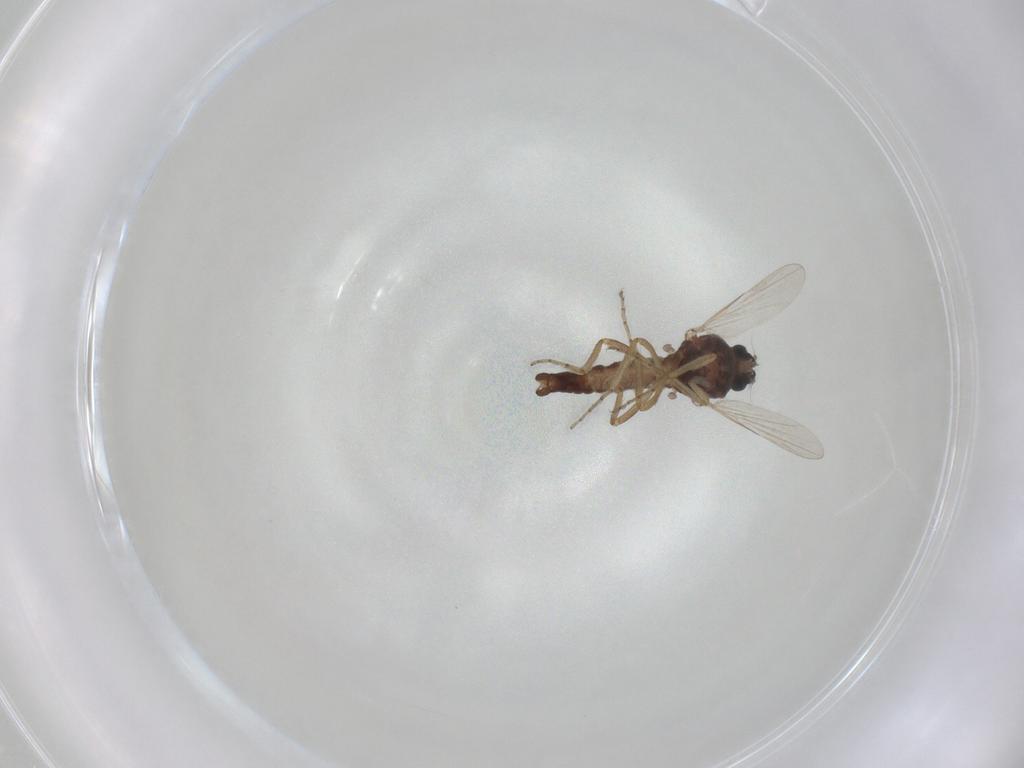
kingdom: Animalia
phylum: Arthropoda
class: Insecta
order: Diptera
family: Ceratopogonidae
